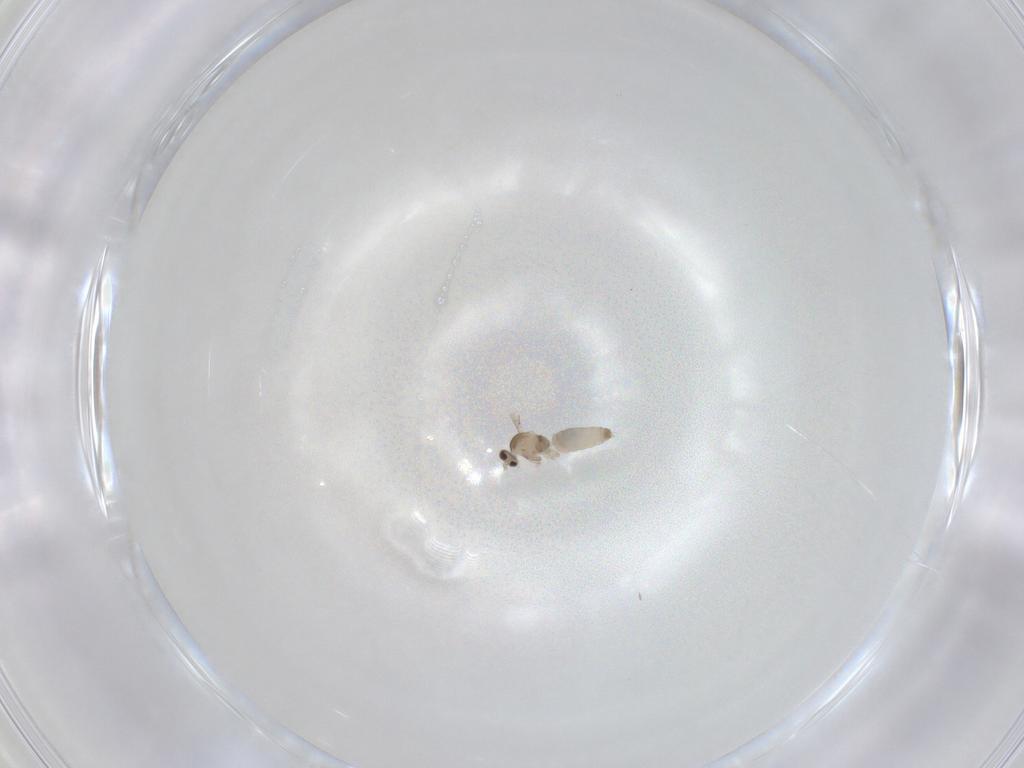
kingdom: Animalia
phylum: Arthropoda
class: Insecta
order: Diptera
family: Cecidomyiidae
